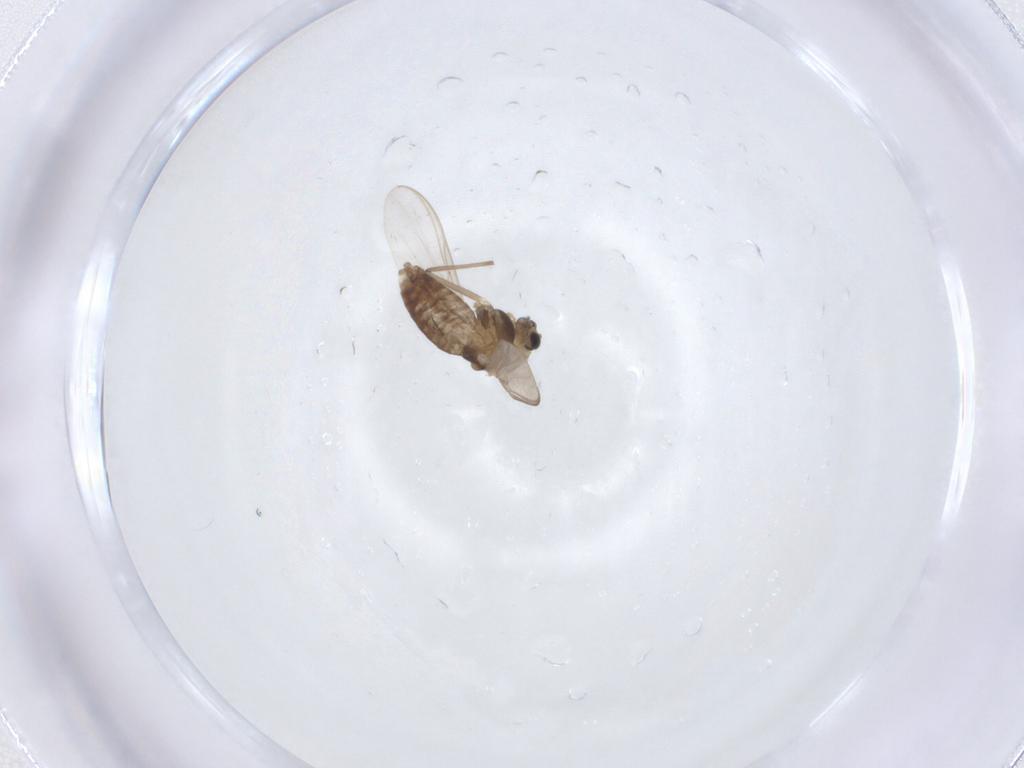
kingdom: Animalia
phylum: Arthropoda
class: Insecta
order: Diptera
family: Chironomidae
